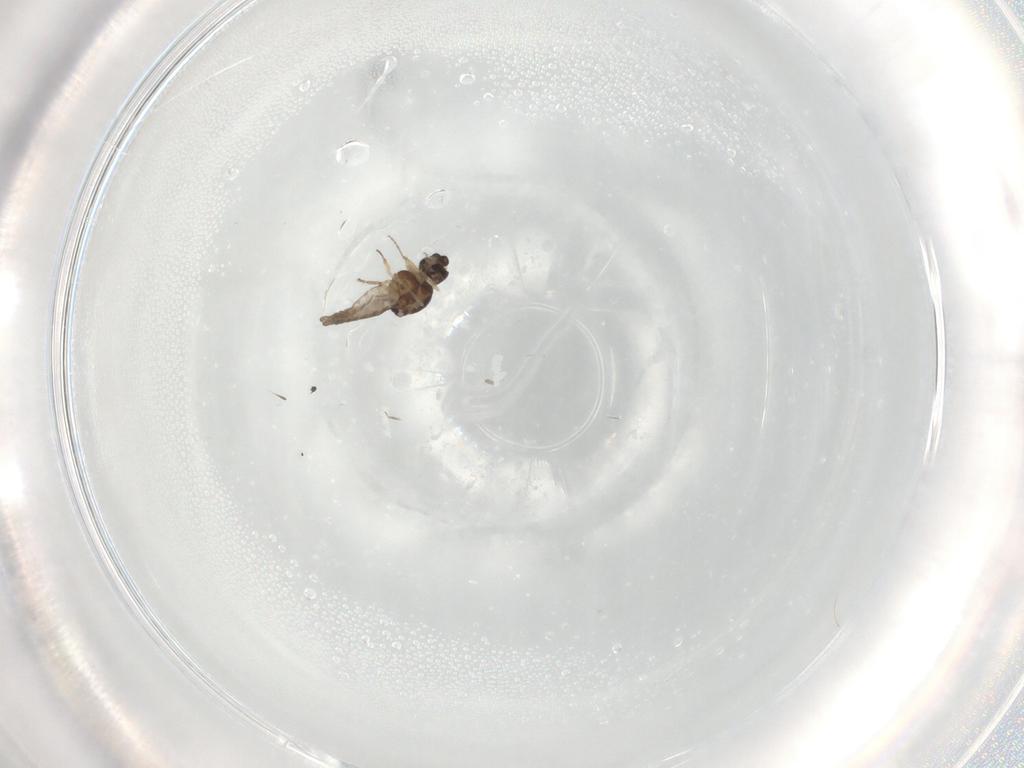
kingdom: Animalia
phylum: Arthropoda
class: Insecta
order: Diptera
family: Ceratopogonidae
